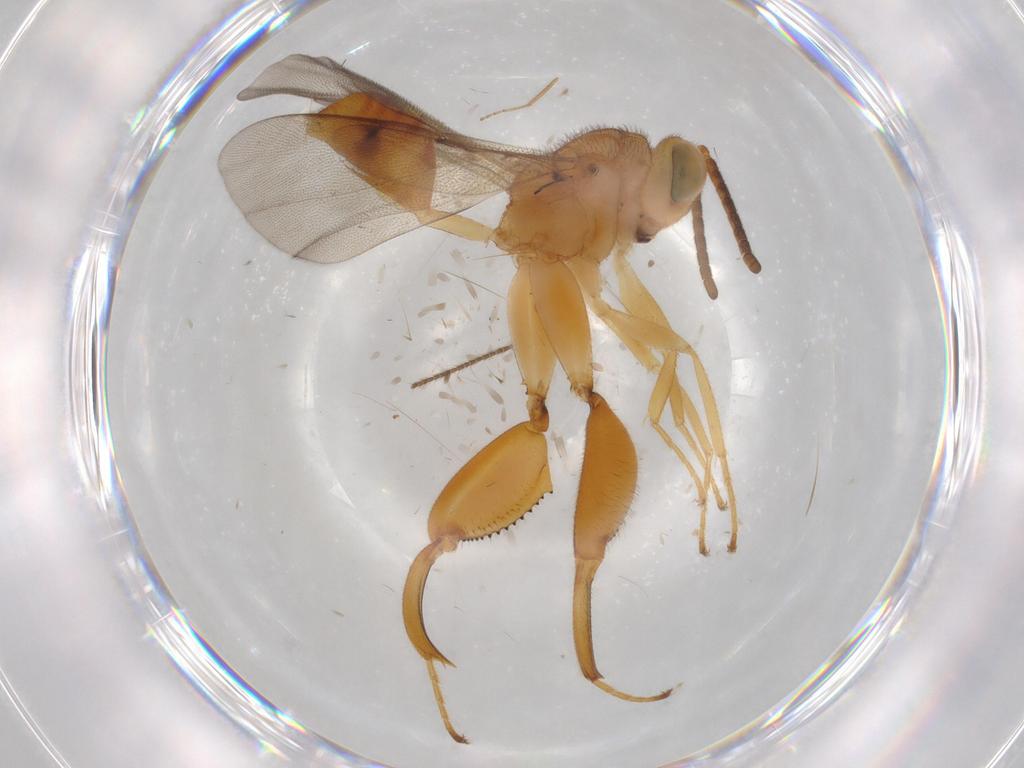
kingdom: Animalia
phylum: Arthropoda
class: Insecta
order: Hymenoptera
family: Chalcididae
